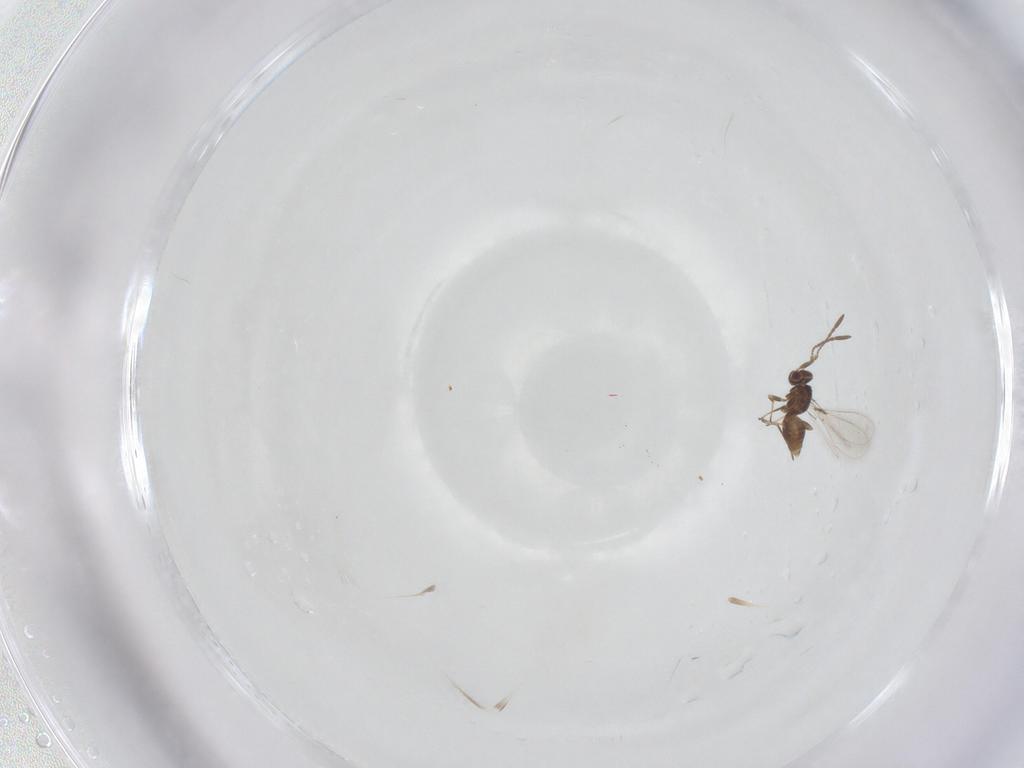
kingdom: Animalia
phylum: Arthropoda
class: Insecta
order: Hymenoptera
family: Mymaridae
